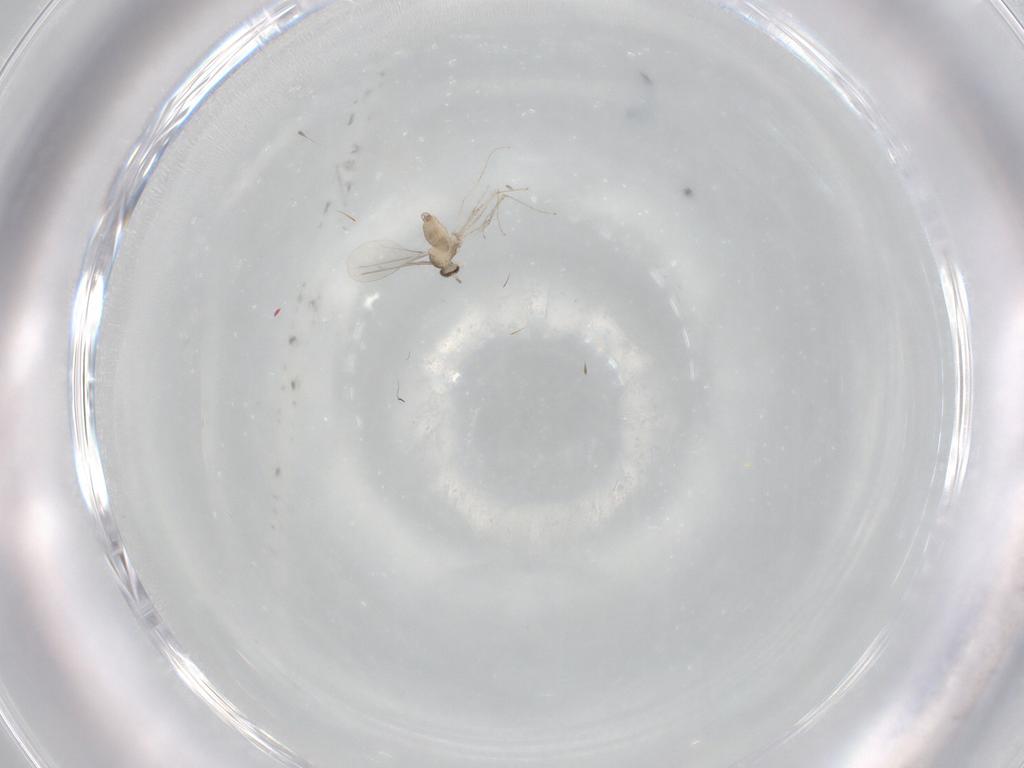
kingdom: Animalia
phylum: Arthropoda
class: Insecta
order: Diptera
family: Cecidomyiidae
